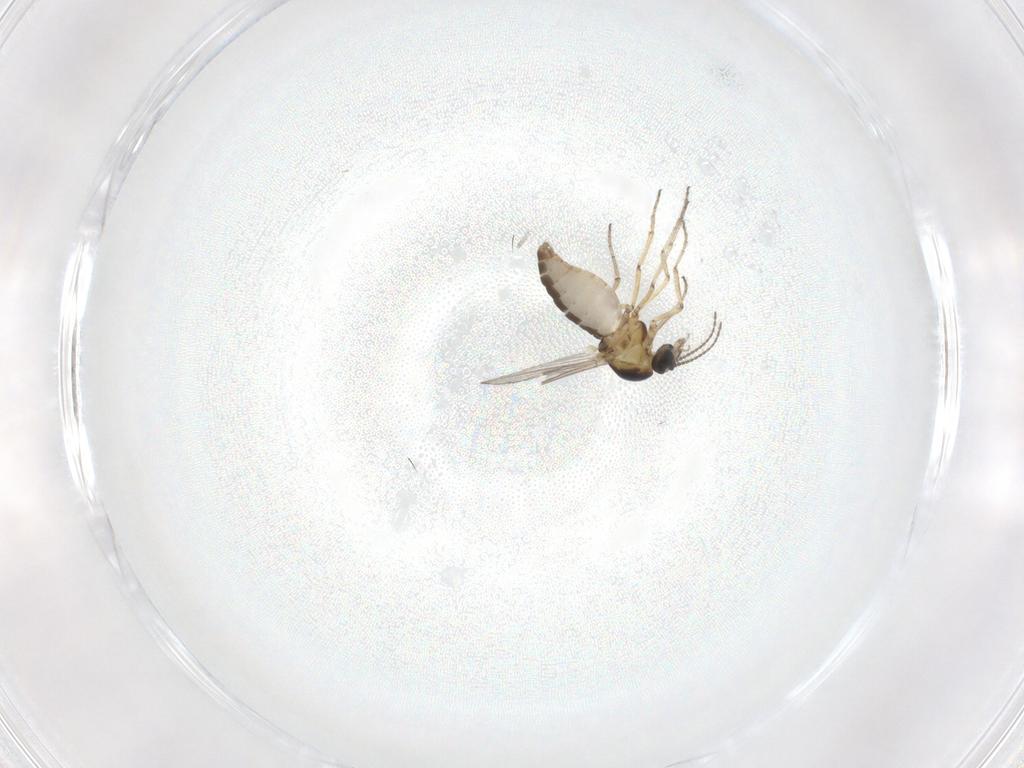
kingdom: Animalia
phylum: Arthropoda
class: Insecta
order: Diptera
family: Ceratopogonidae
